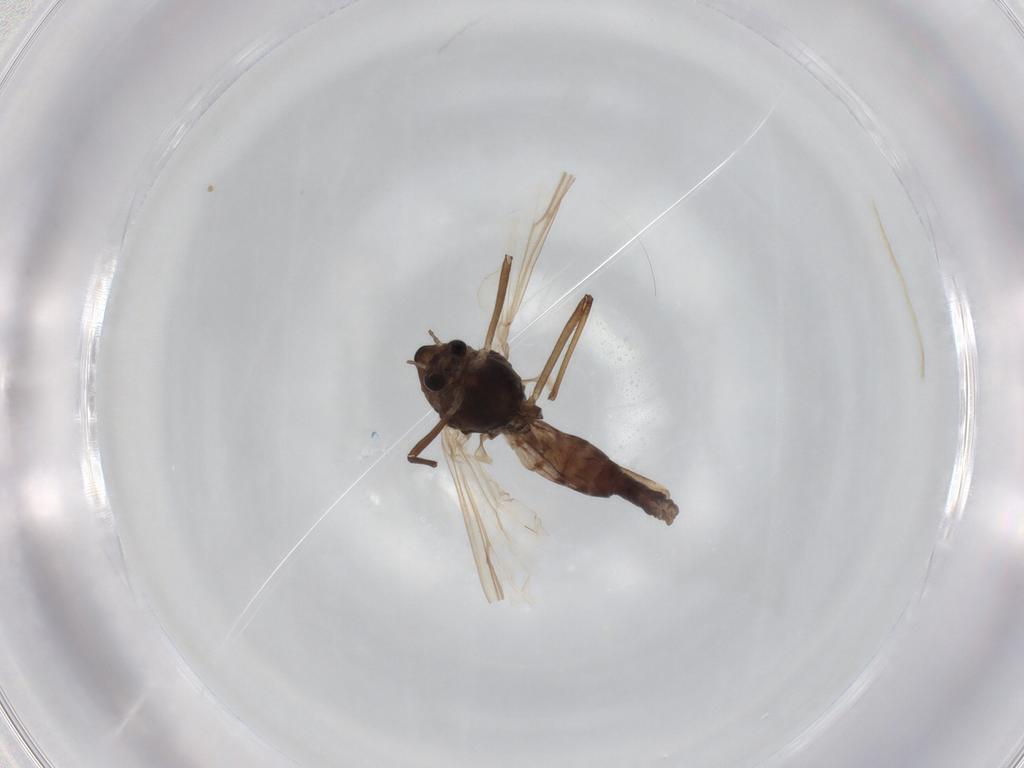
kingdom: Animalia
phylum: Arthropoda
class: Insecta
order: Diptera
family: Chironomidae
